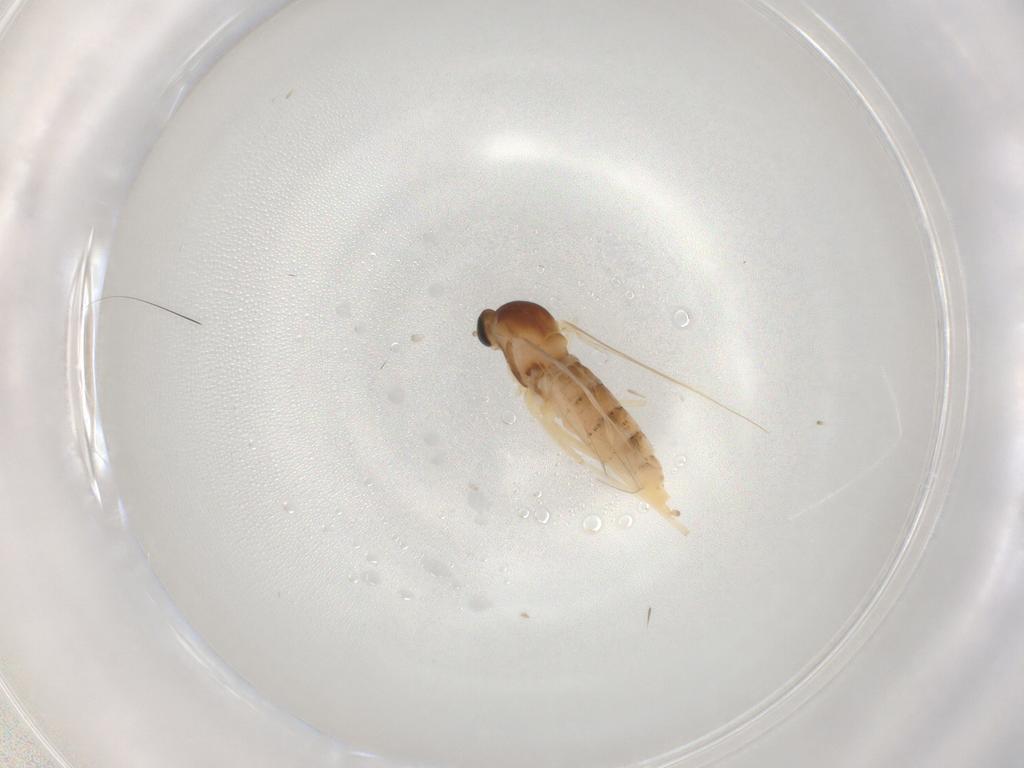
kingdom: Animalia
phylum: Arthropoda
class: Insecta
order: Diptera
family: Cecidomyiidae
